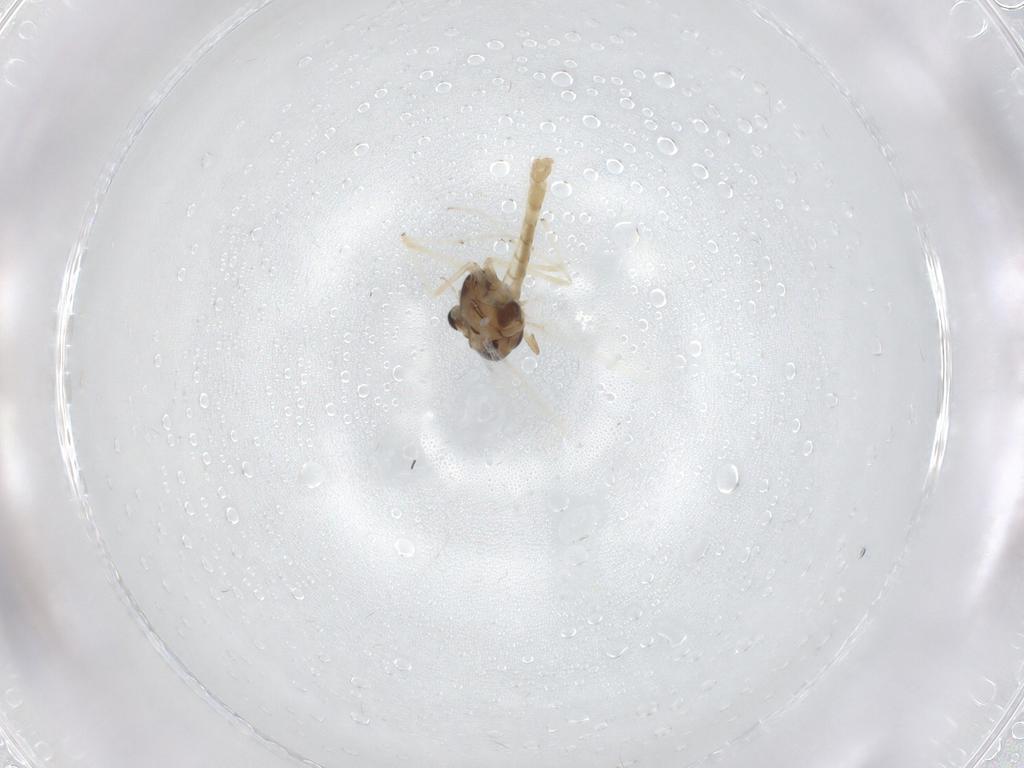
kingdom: Animalia
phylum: Arthropoda
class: Insecta
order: Diptera
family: Chironomidae
